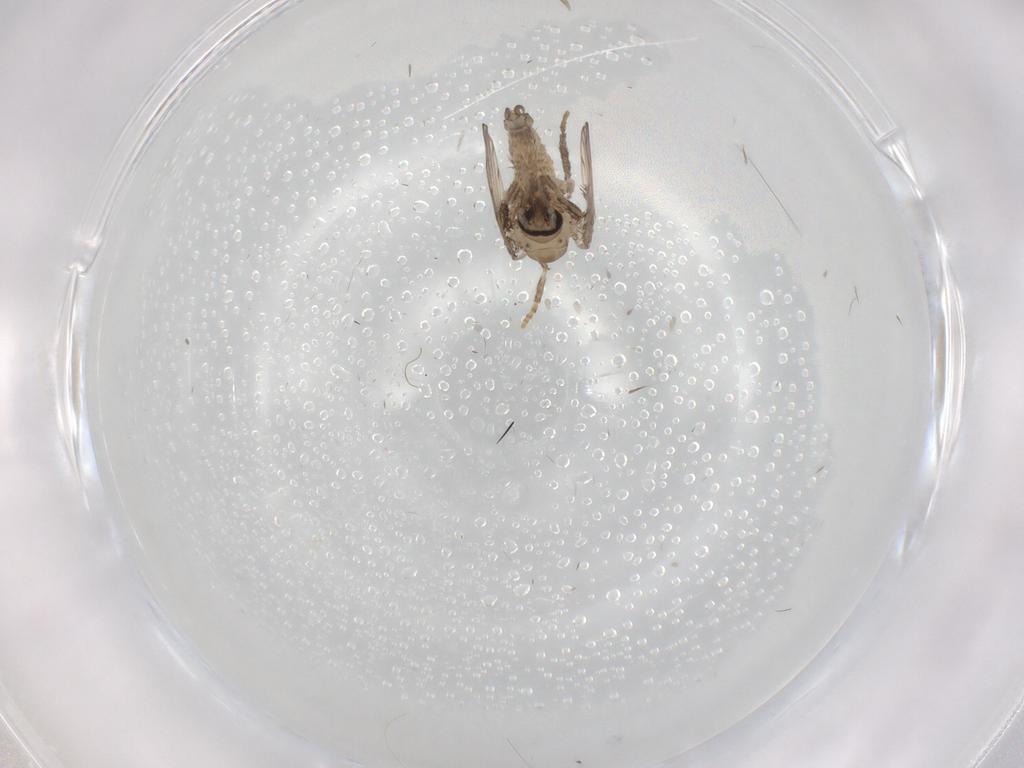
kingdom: Animalia
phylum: Arthropoda
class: Insecta
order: Diptera
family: Psychodidae
